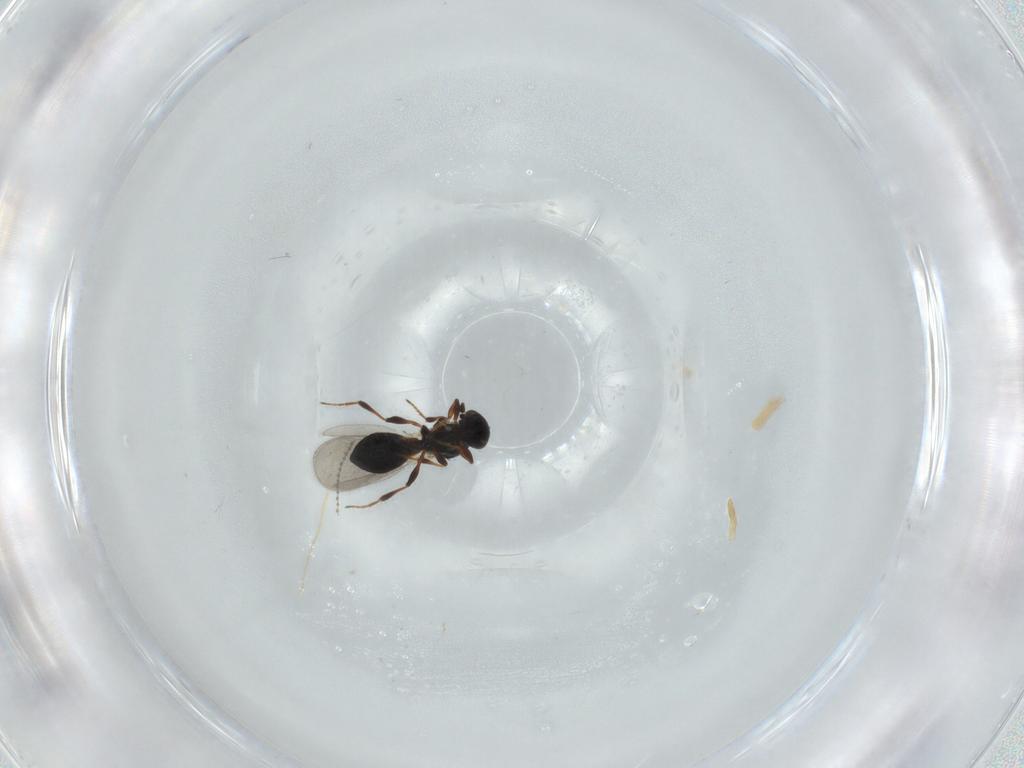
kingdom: Animalia
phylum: Arthropoda
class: Insecta
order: Hymenoptera
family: Platygastridae
